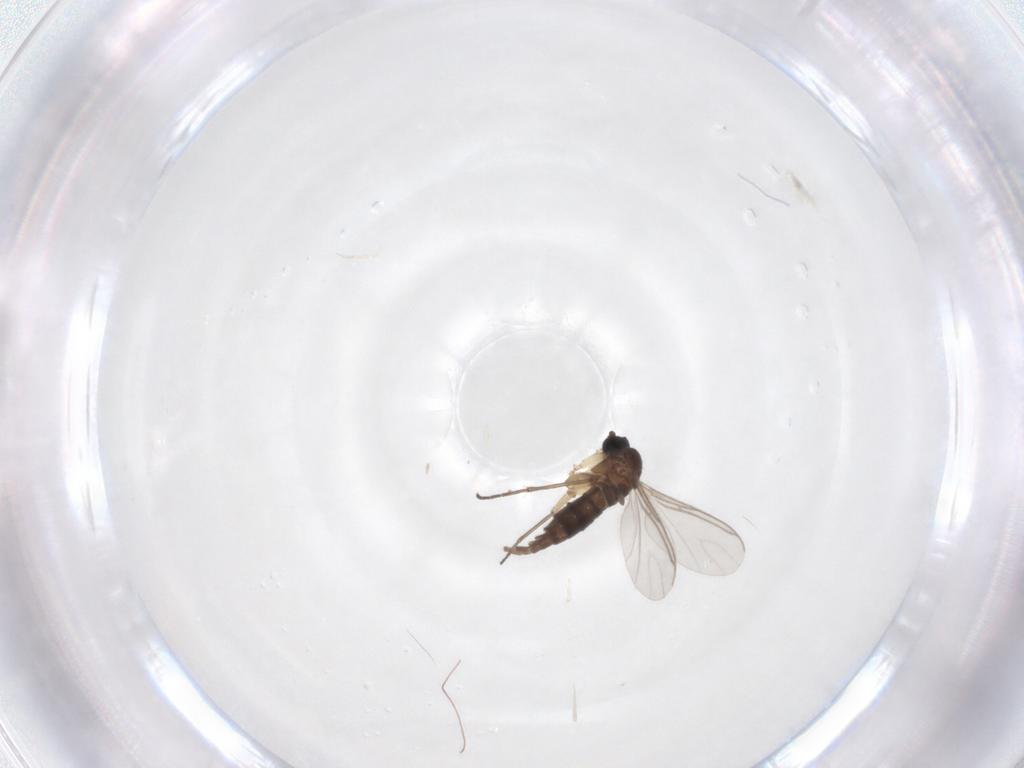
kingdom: Animalia
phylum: Arthropoda
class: Insecta
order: Diptera
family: Sciaridae
